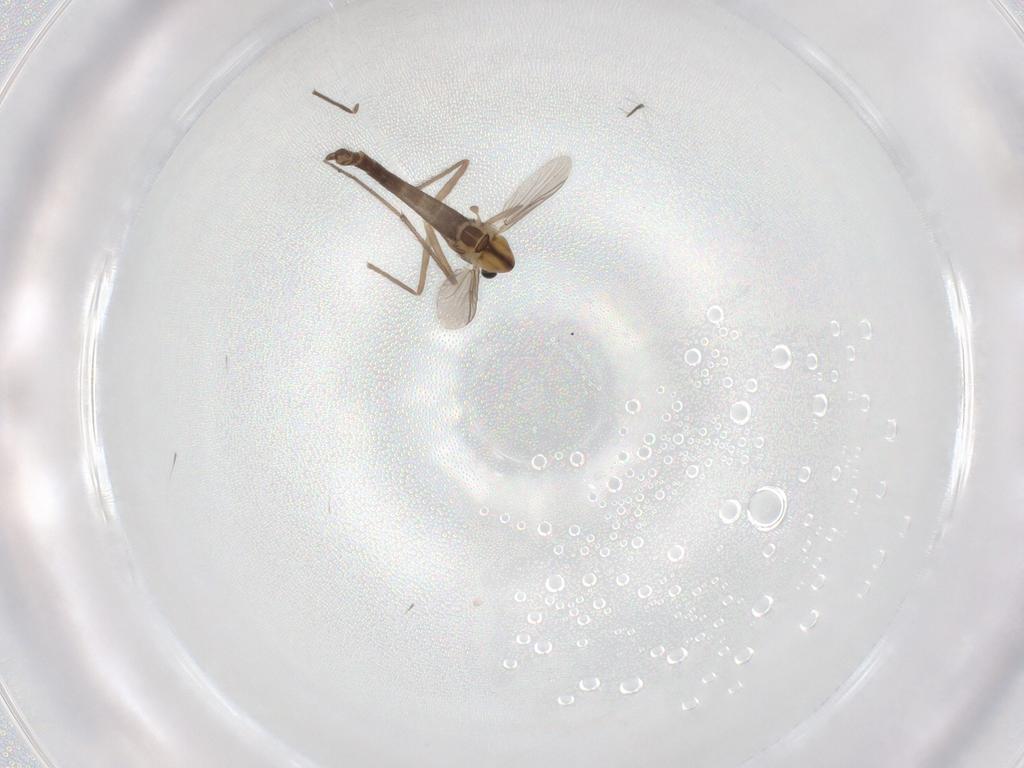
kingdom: Animalia
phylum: Arthropoda
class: Insecta
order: Diptera
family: Chironomidae
